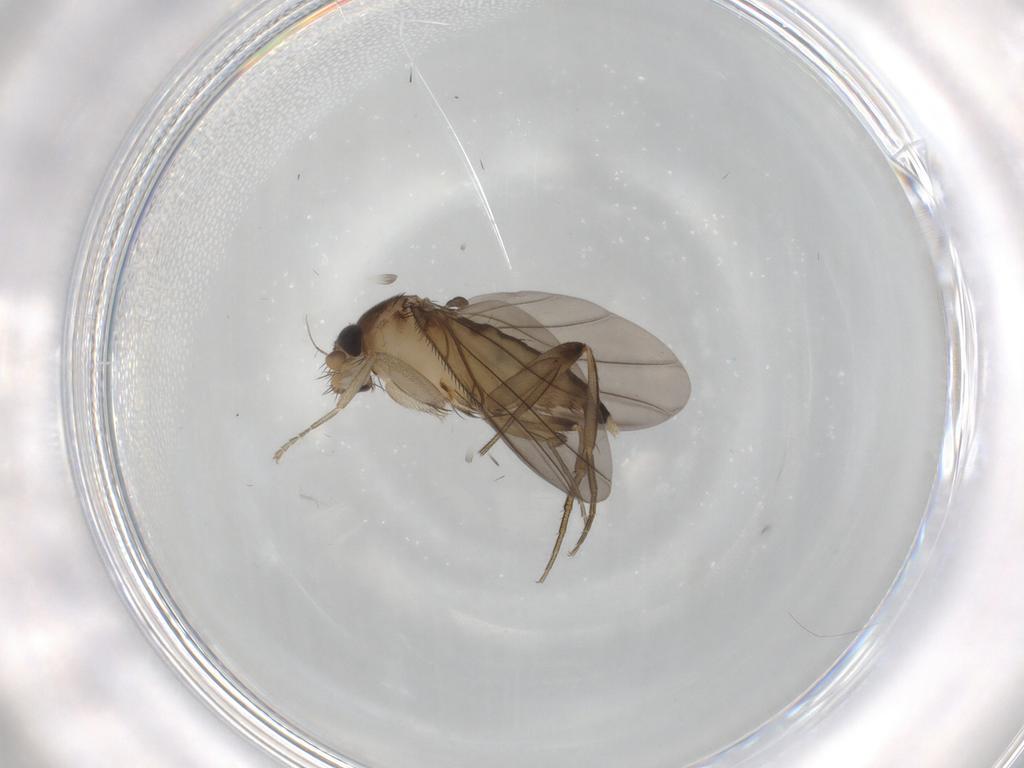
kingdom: Animalia
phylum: Arthropoda
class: Insecta
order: Diptera
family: Phoridae
